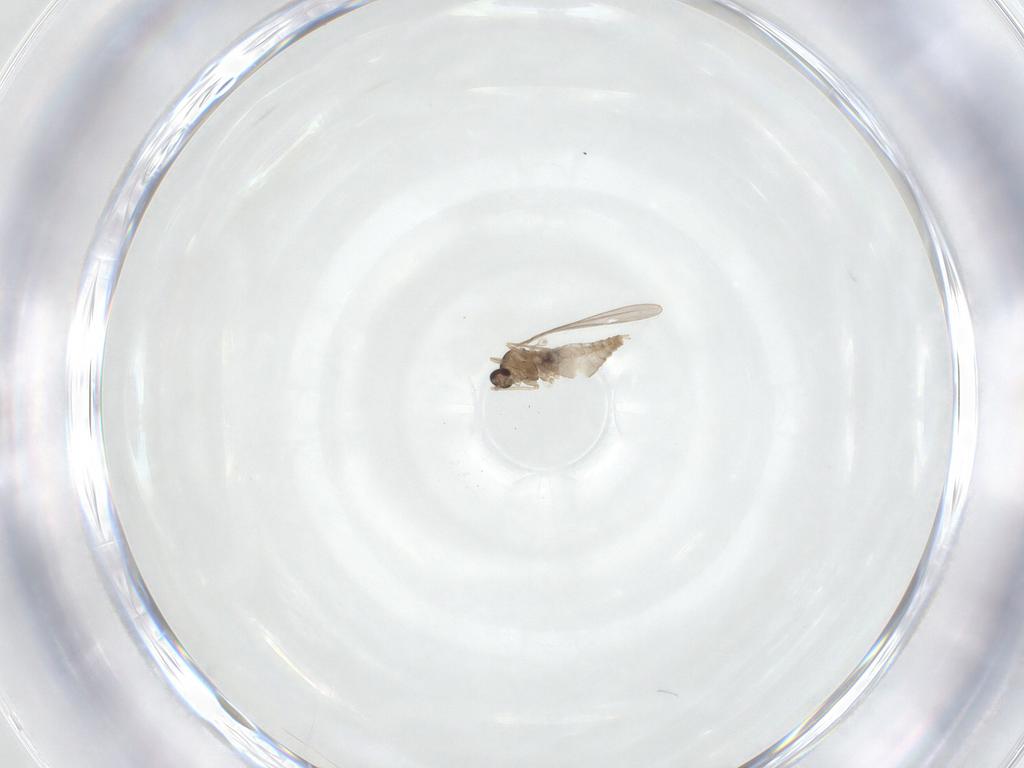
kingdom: Animalia
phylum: Arthropoda
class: Insecta
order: Diptera
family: Cecidomyiidae
